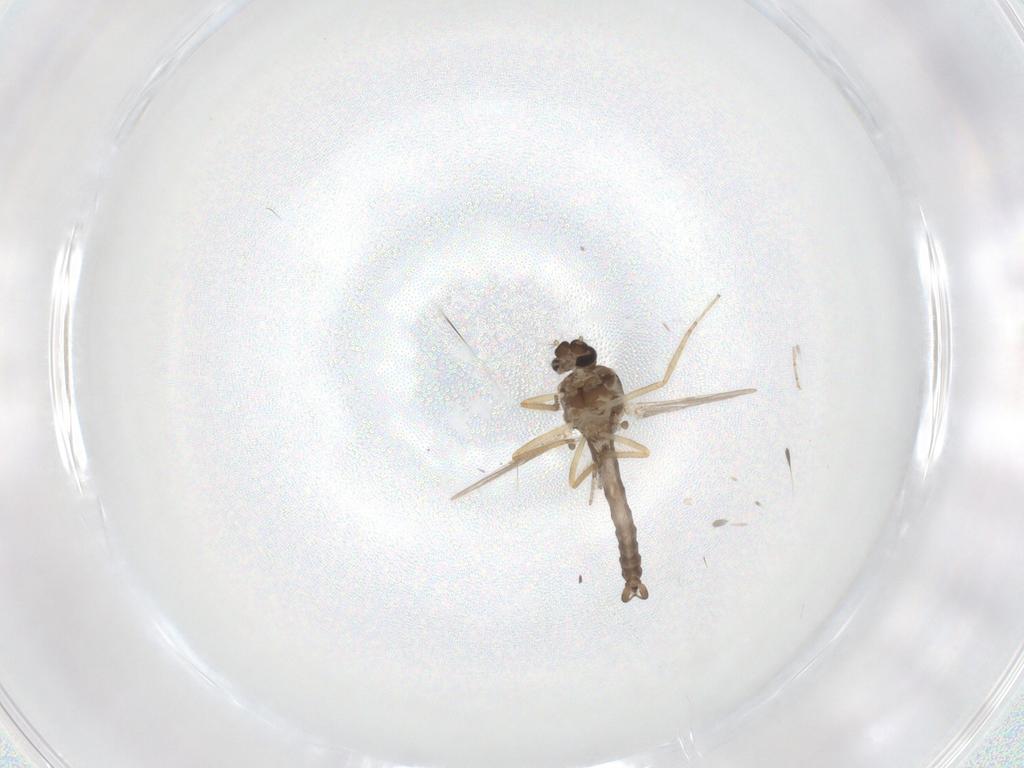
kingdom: Animalia
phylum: Arthropoda
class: Insecta
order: Diptera
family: Ceratopogonidae
